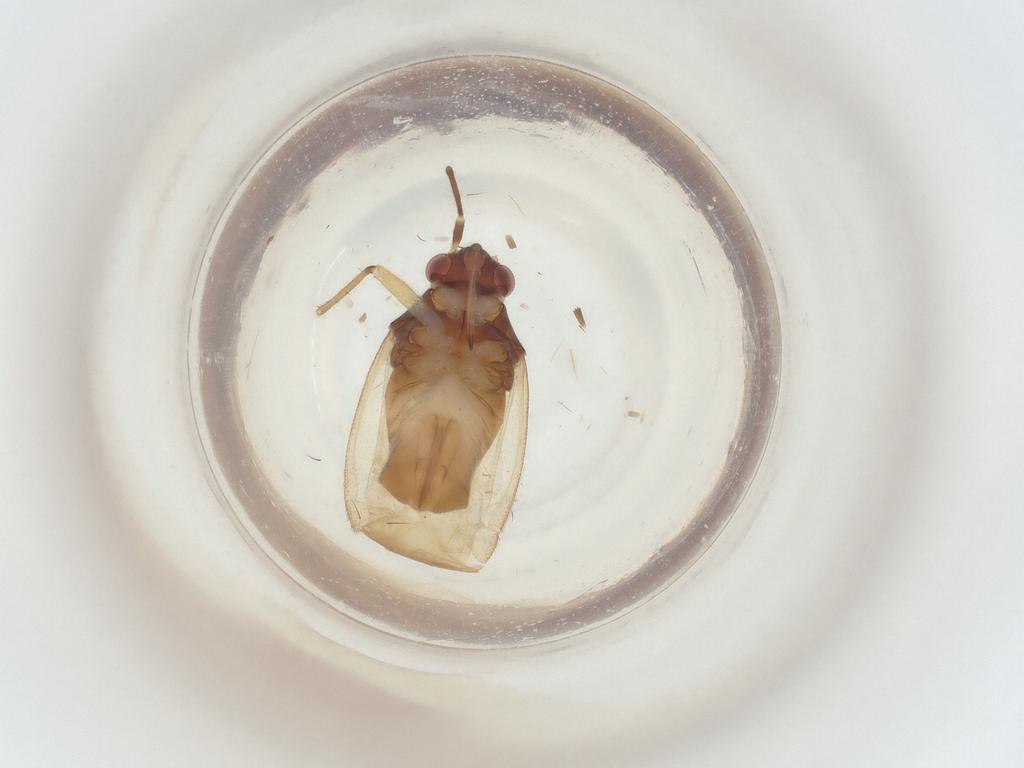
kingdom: Animalia
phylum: Arthropoda
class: Insecta
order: Hemiptera
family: Miridae
